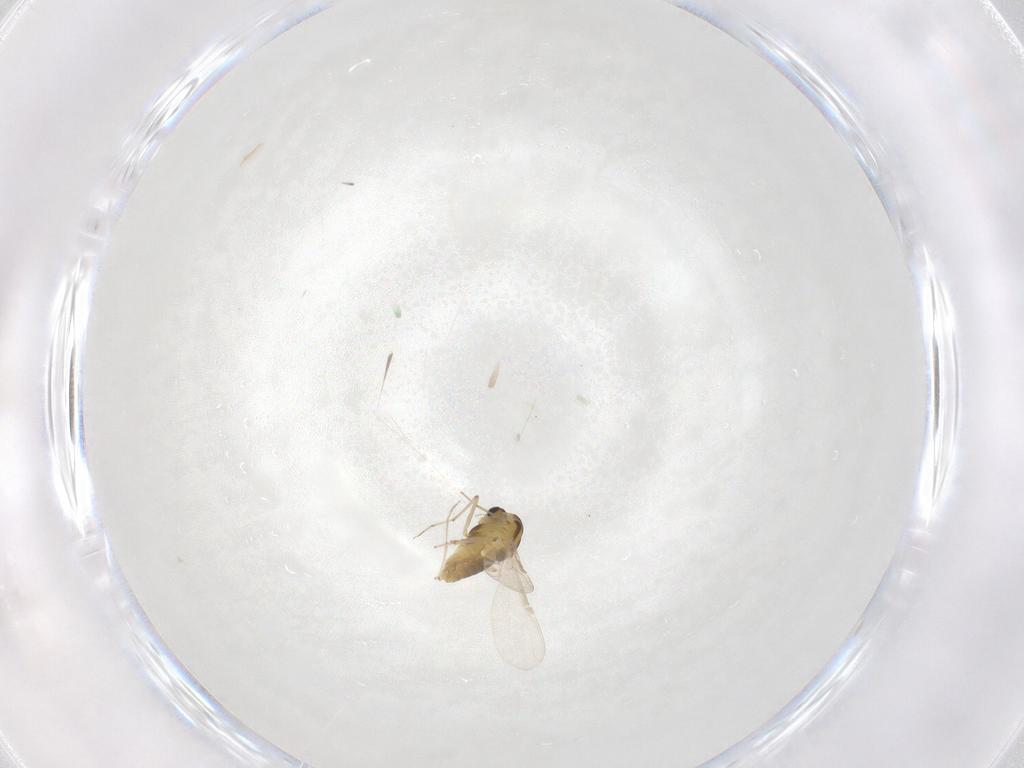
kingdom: Animalia
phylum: Arthropoda
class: Insecta
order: Diptera
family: Chironomidae
